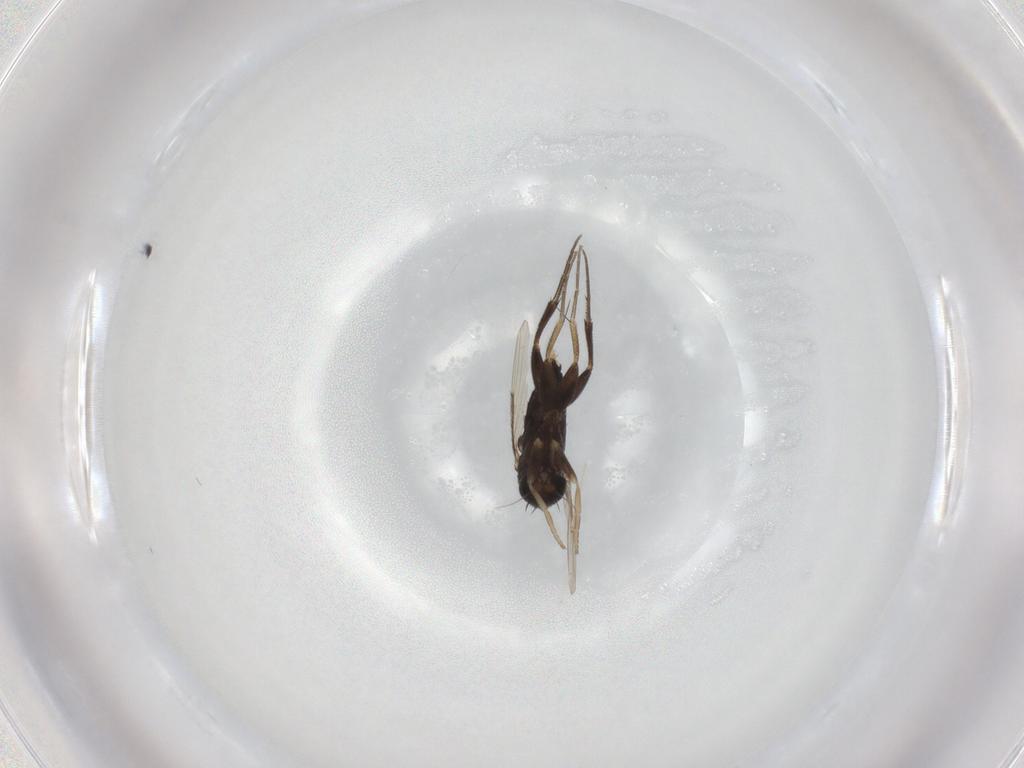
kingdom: Animalia
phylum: Arthropoda
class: Insecta
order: Diptera
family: Phoridae
